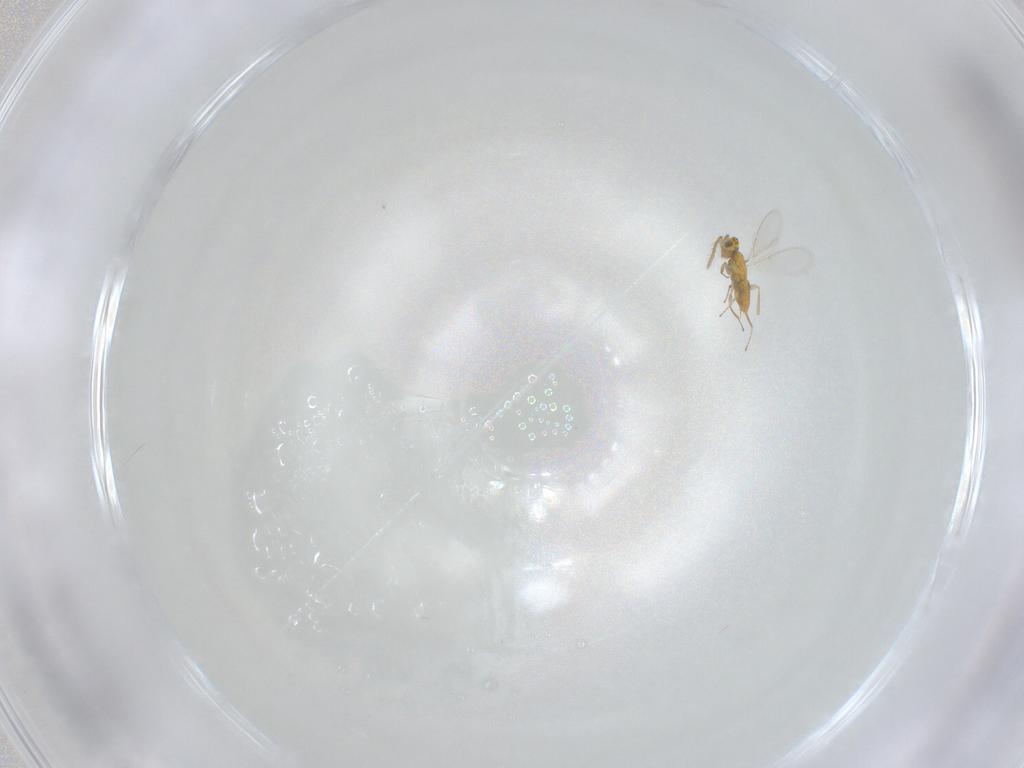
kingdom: Animalia
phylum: Arthropoda
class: Insecta
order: Hymenoptera
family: Aphelinidae
